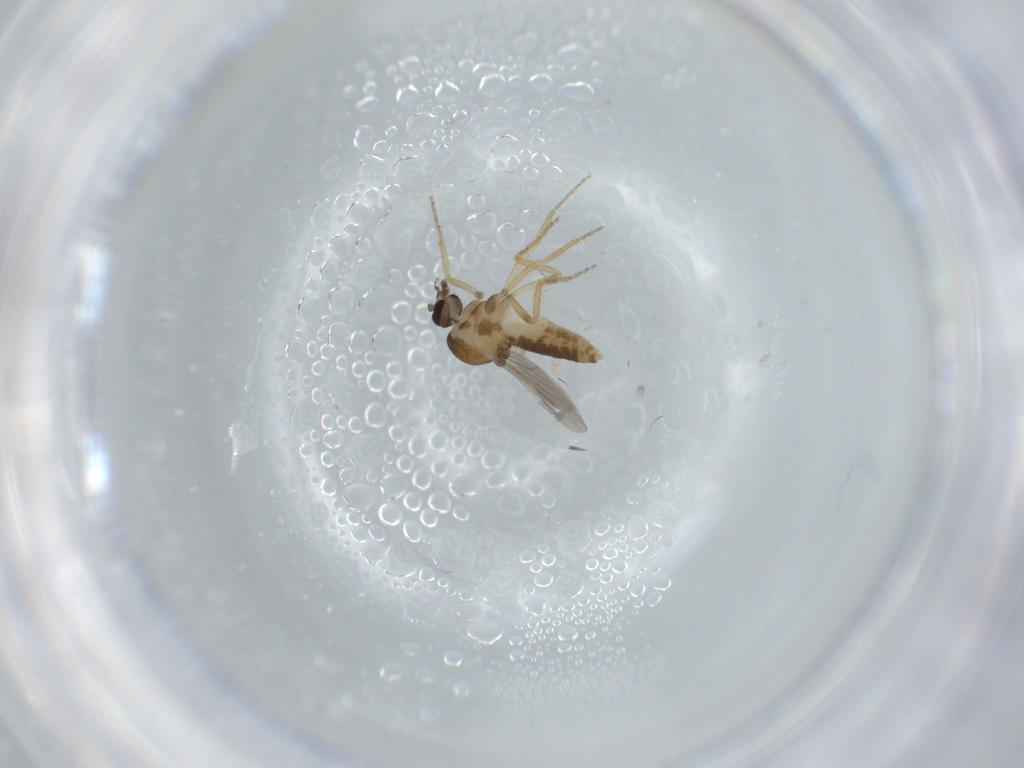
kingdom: Animalia
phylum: Arthropoda
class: Insecta
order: Diptera
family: Ceratopogonidae
